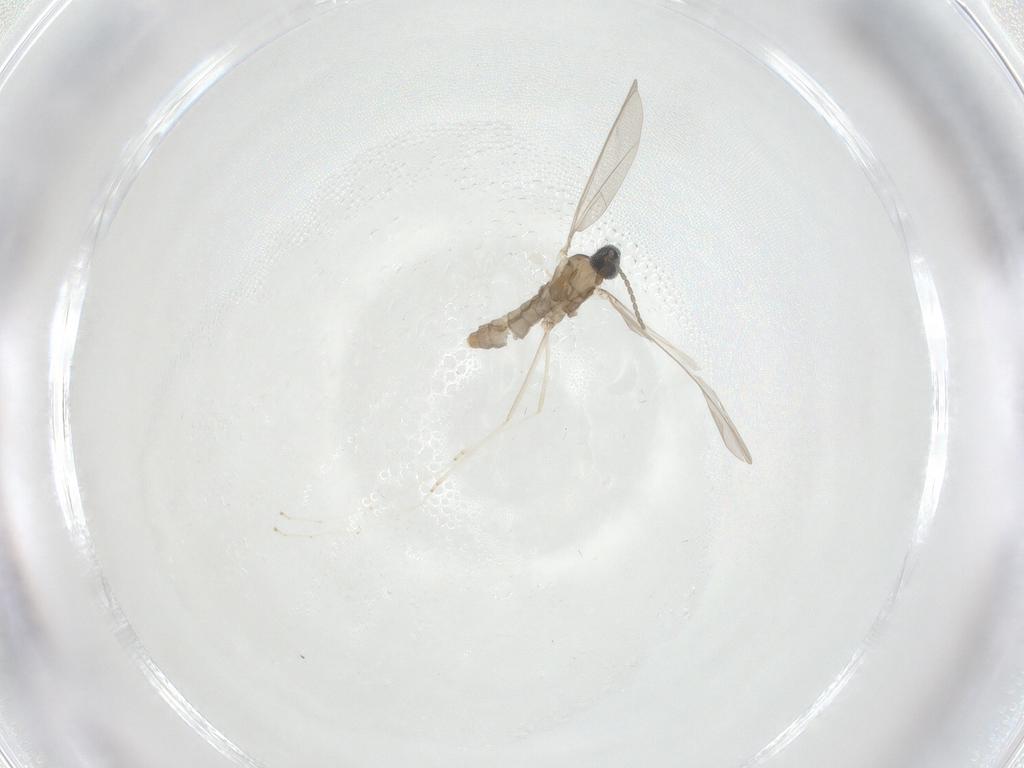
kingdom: Animalia
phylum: Arthropoda
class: Insecta
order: Diptera
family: Cecidomyiidae
